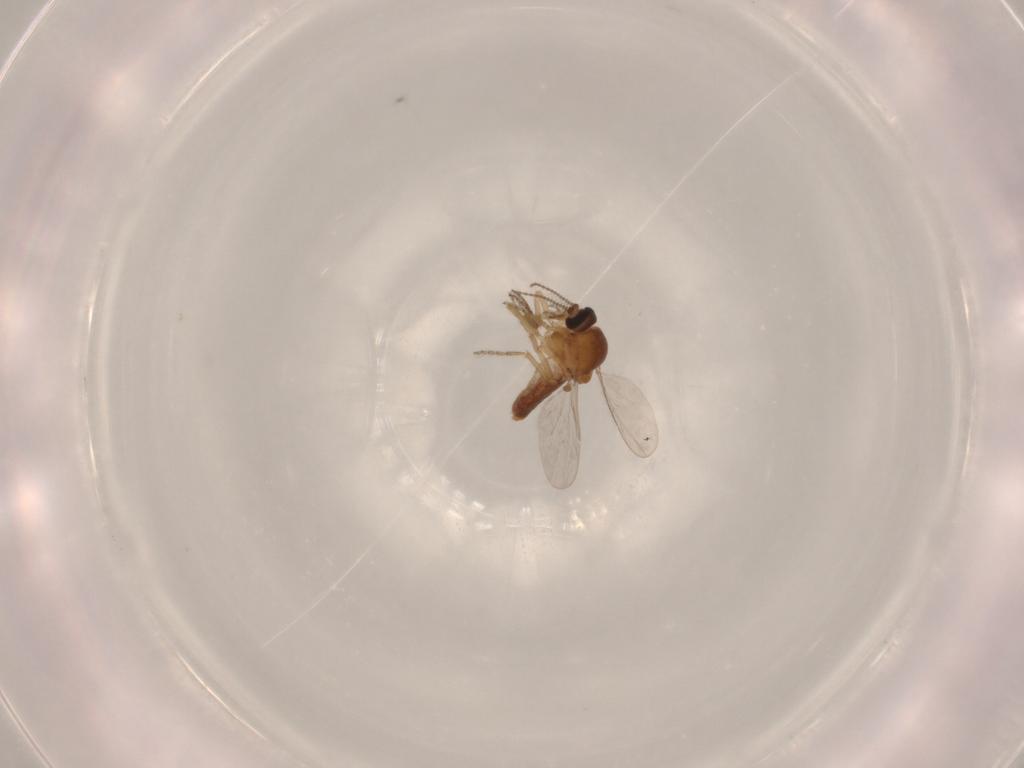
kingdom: Animalia
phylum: Arthropoda
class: Insecta
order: Diptera
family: Ceratopogonidae
